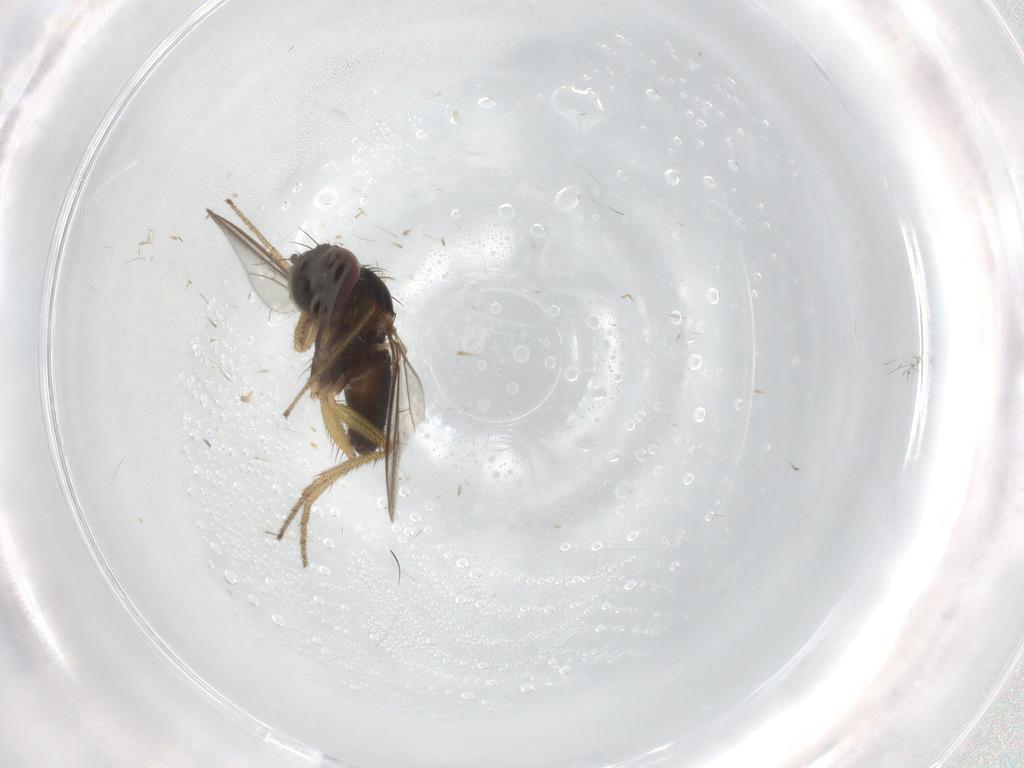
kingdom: Animalia
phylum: Arthropoda
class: Insecta
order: Diptera
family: Dolichopodidae
